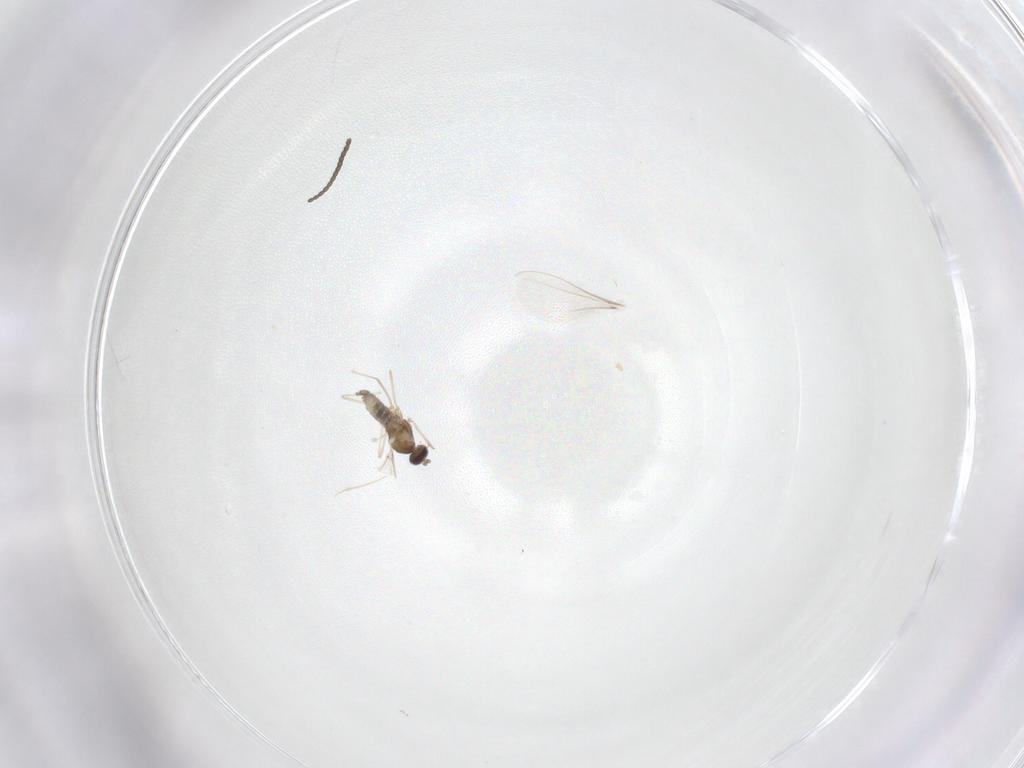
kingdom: Animalia
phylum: Arthropoda
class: Insecta
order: Diptera
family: Cecidomyiidae
